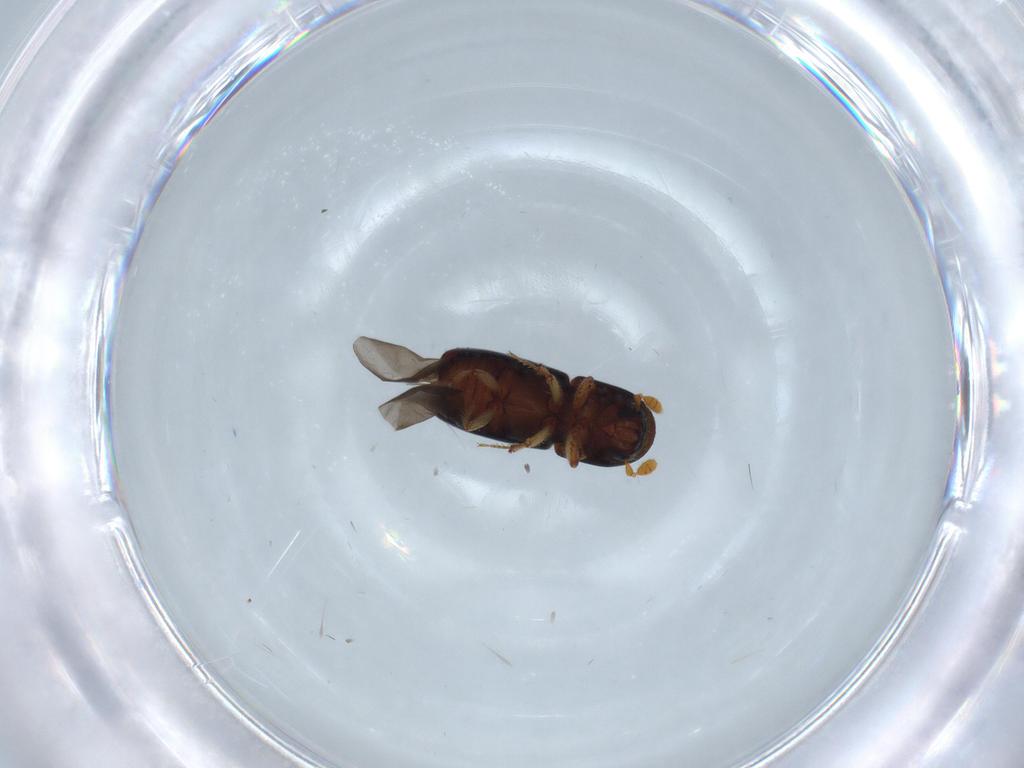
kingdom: Animalia
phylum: Arthropoda
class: Insecta
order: Coleoptera
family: Curculionidae
